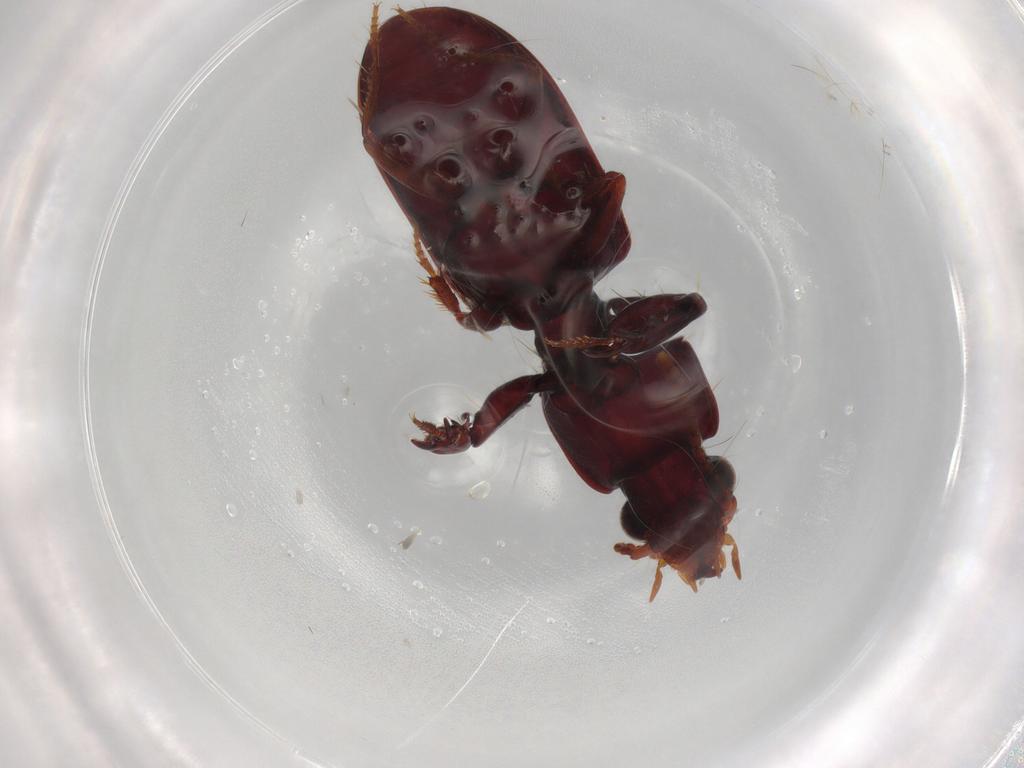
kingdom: Animalia
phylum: Arthropoda
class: Insecta
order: Coleoptera
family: Carabidae
